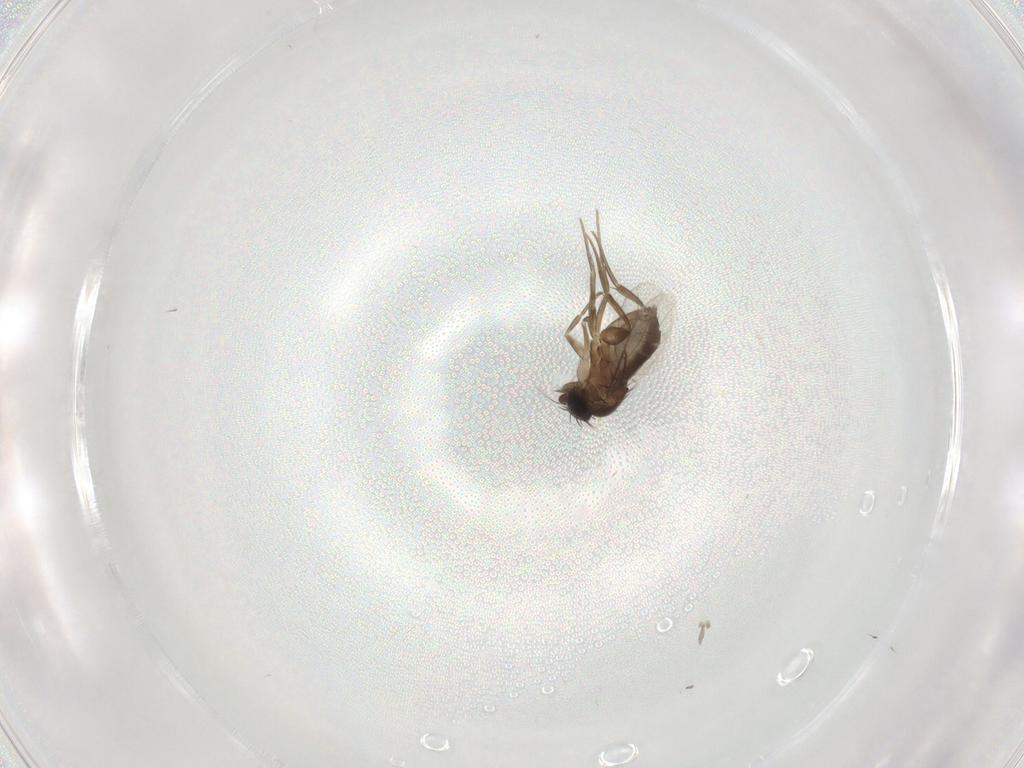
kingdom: Animalia
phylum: Arthropoda
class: Insecta
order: Diptera
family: Phoridae
